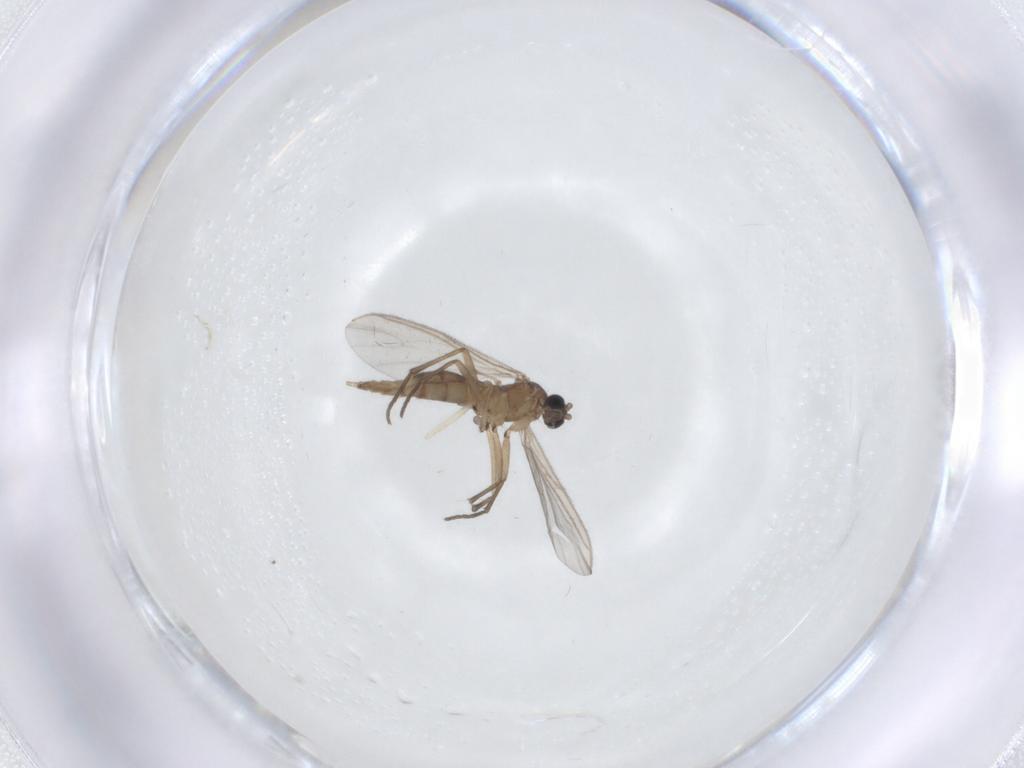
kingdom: Animalia
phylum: Arthropoda
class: Insecta
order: Diptera
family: Sciaridae
